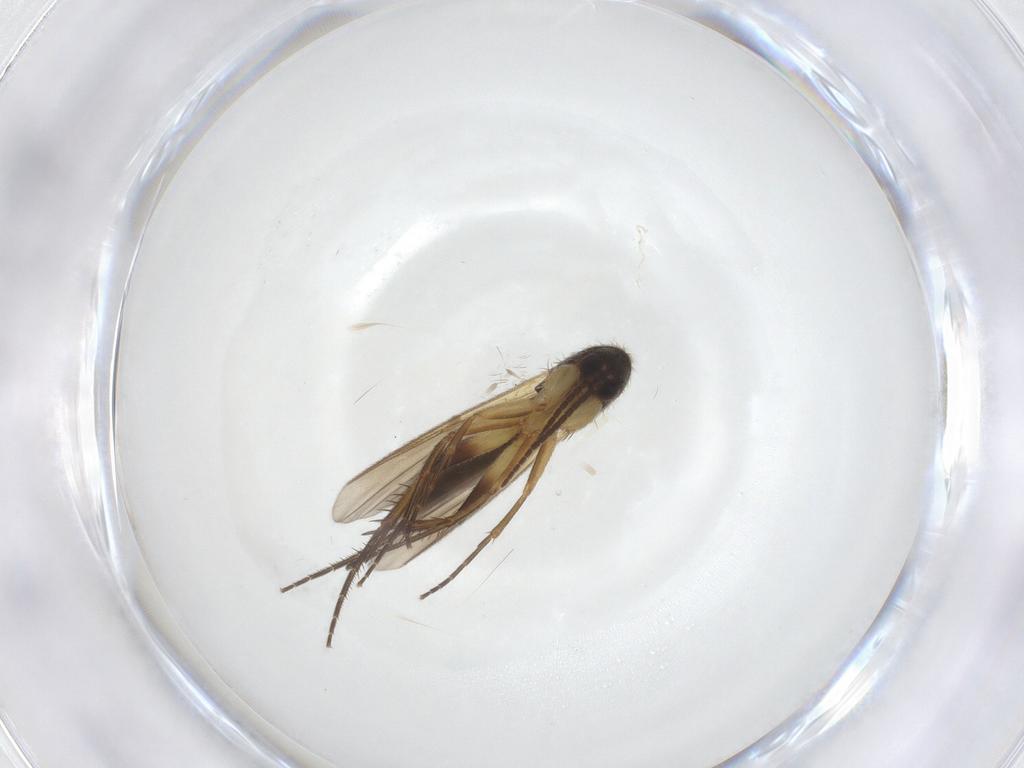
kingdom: Animalia
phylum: Arthropoda
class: Insecta
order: Diptera
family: Mycetophilidae
